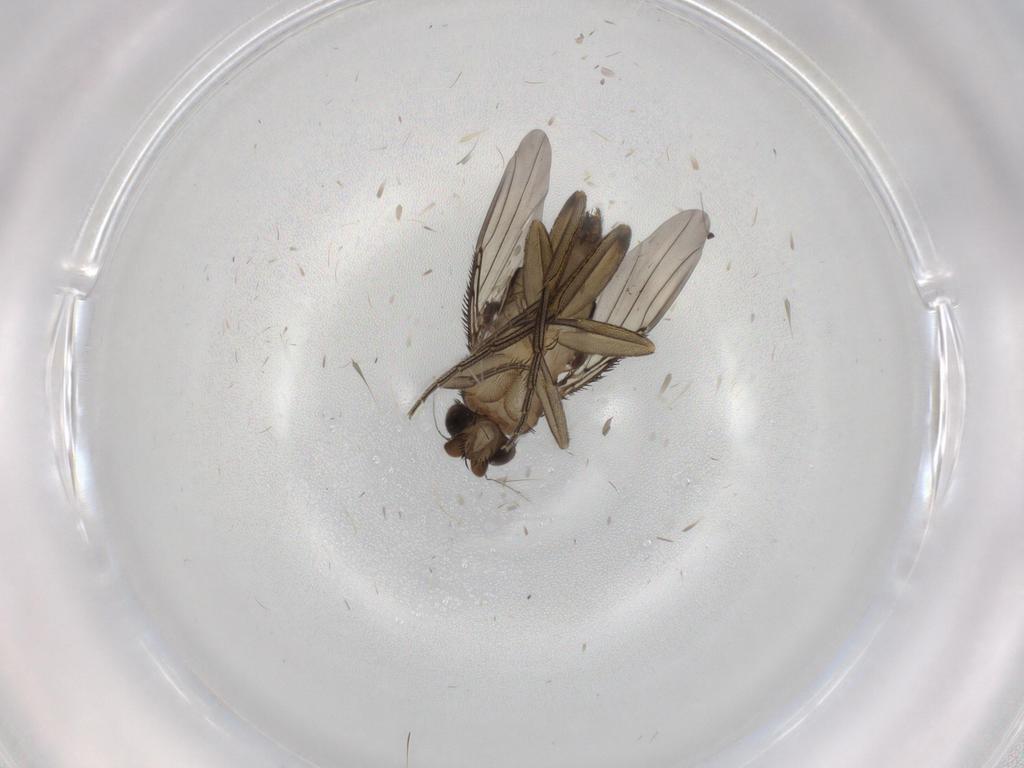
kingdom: Animalia
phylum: Arthropoda
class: Insecta
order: Diptera
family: Phoridae
